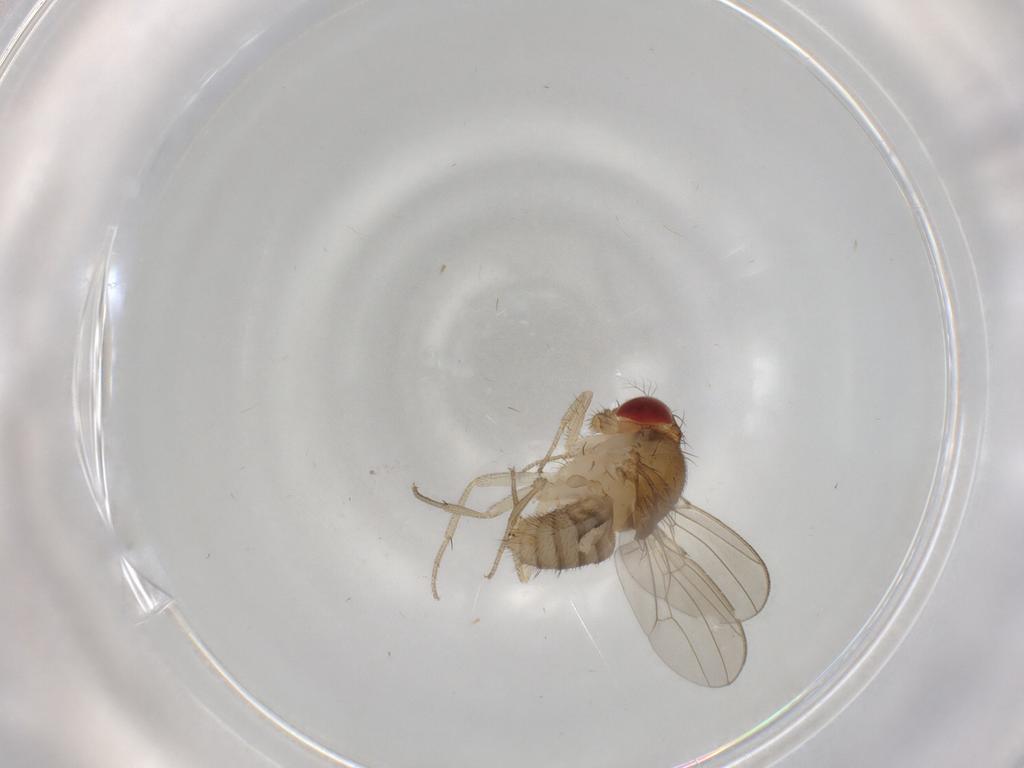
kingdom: Animalia
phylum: Arthropoda
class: Insecta
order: Diptera
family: Drosophilidae
